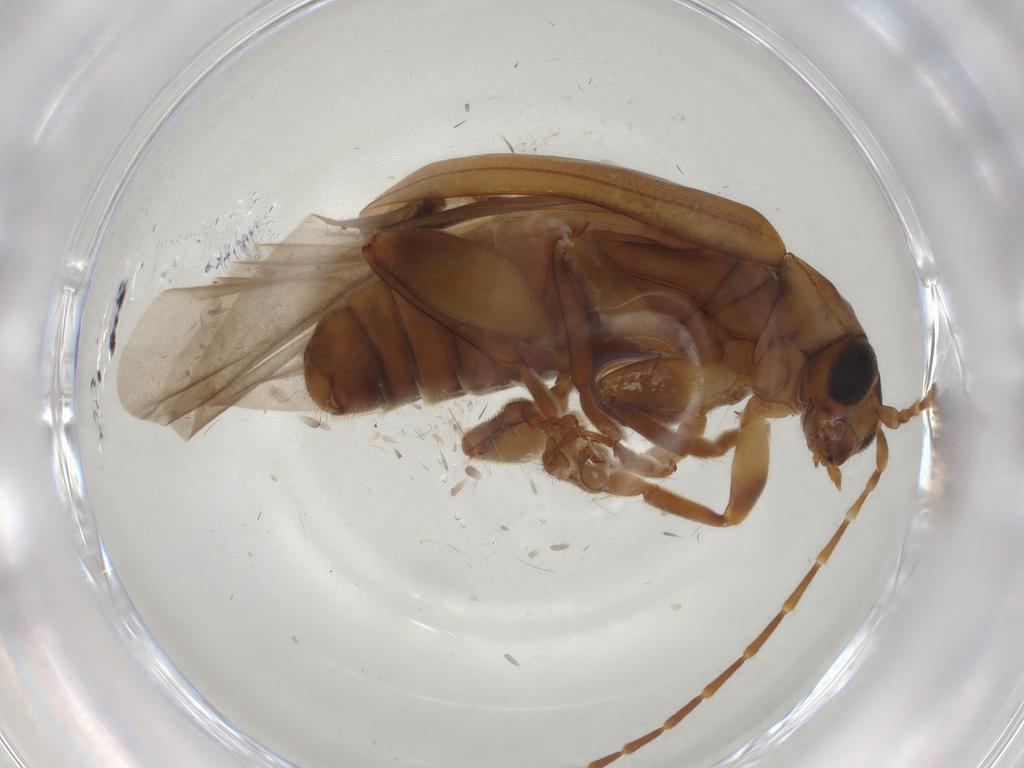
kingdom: Animalia
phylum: Arthropoda
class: Insecta
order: Coleoptera
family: Chrysomelidae
